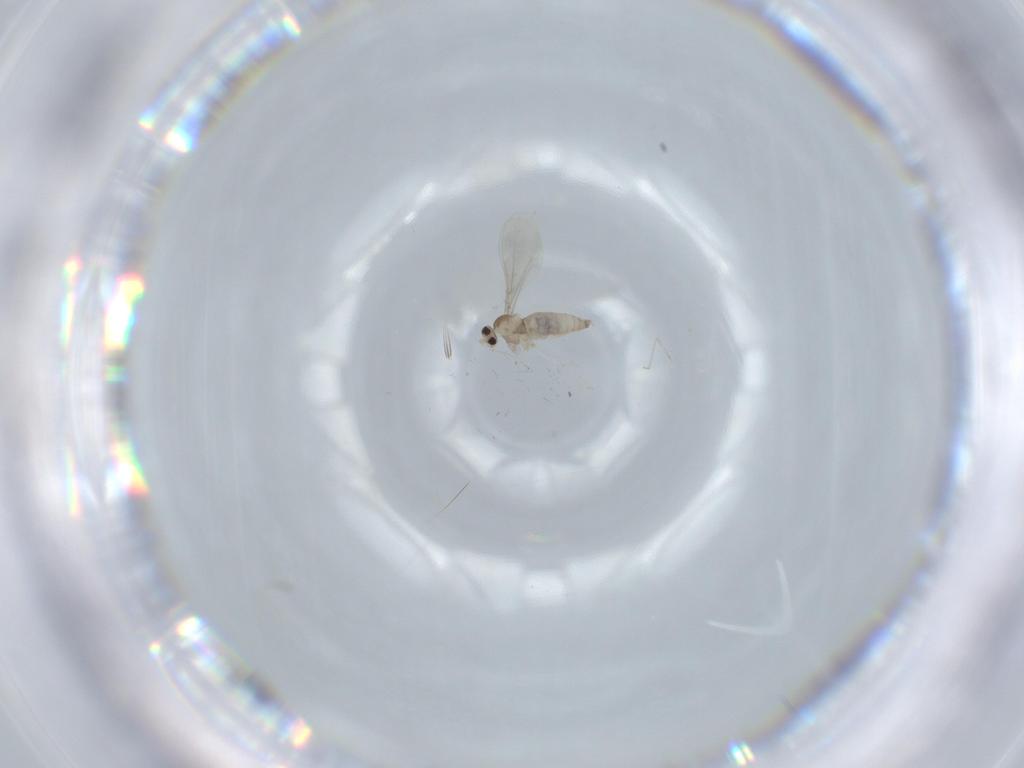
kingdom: Animalia
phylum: Arthropoda
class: Insecta
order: Diptera
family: Cecidomyiidae
